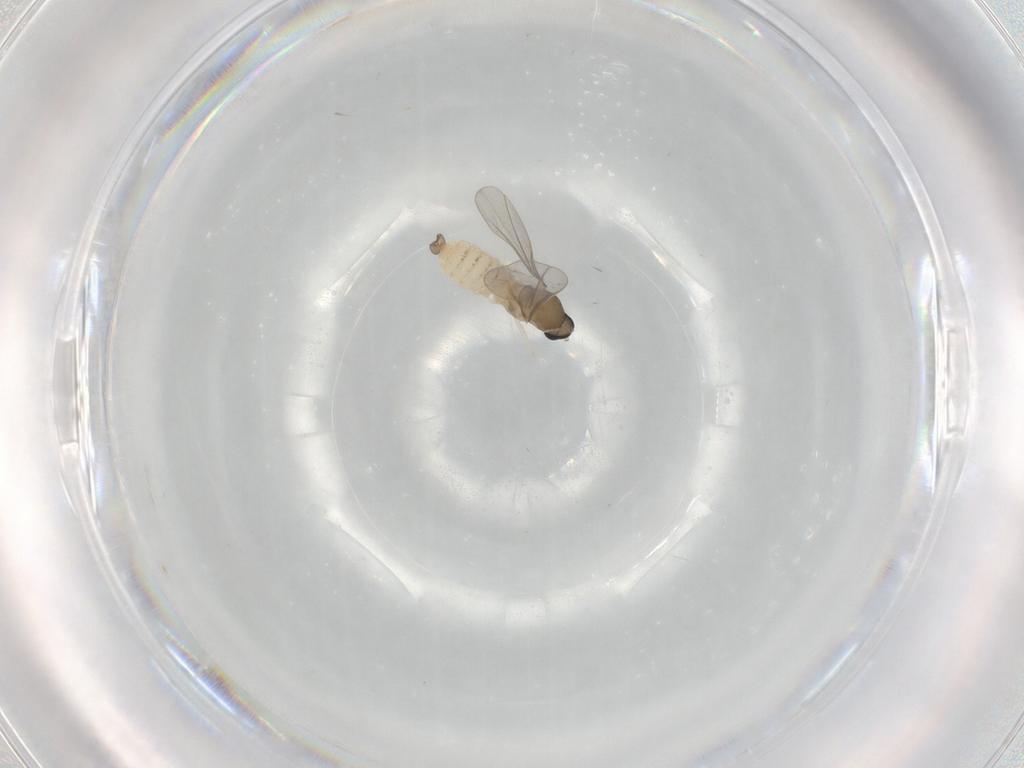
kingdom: Animalia
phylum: Arthropoda
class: Insecta
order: Diptera
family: Cecidomyiidae
